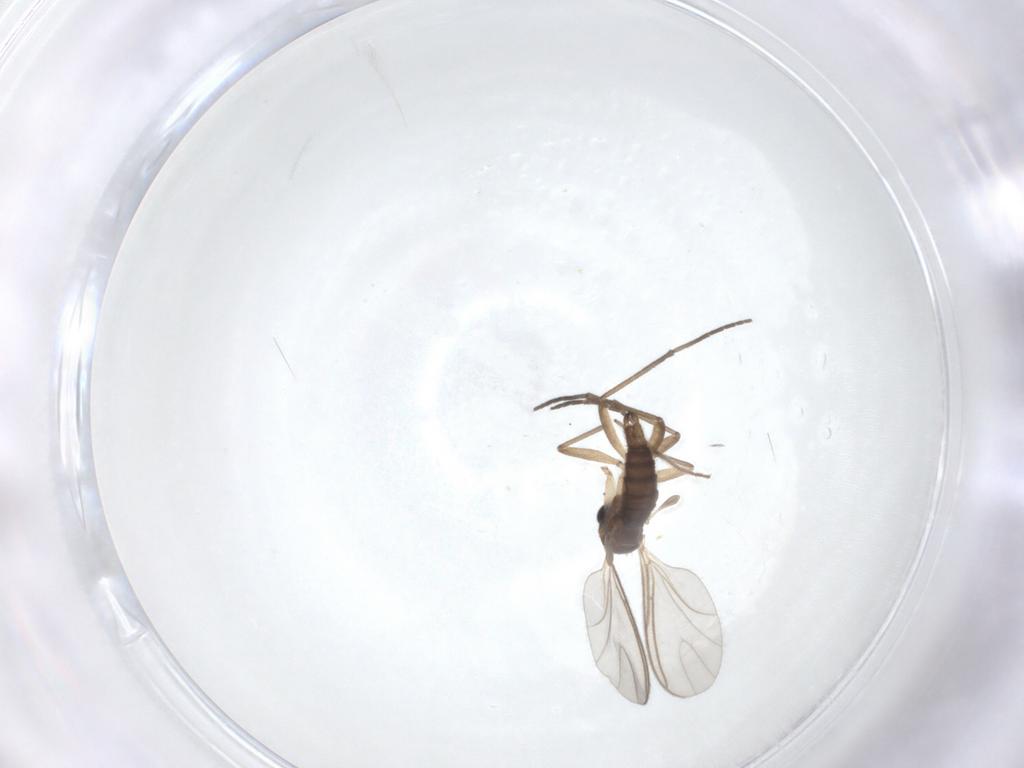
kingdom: Animalia
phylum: Arthropoda
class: Insecta
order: Diptera
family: Sciaridae
